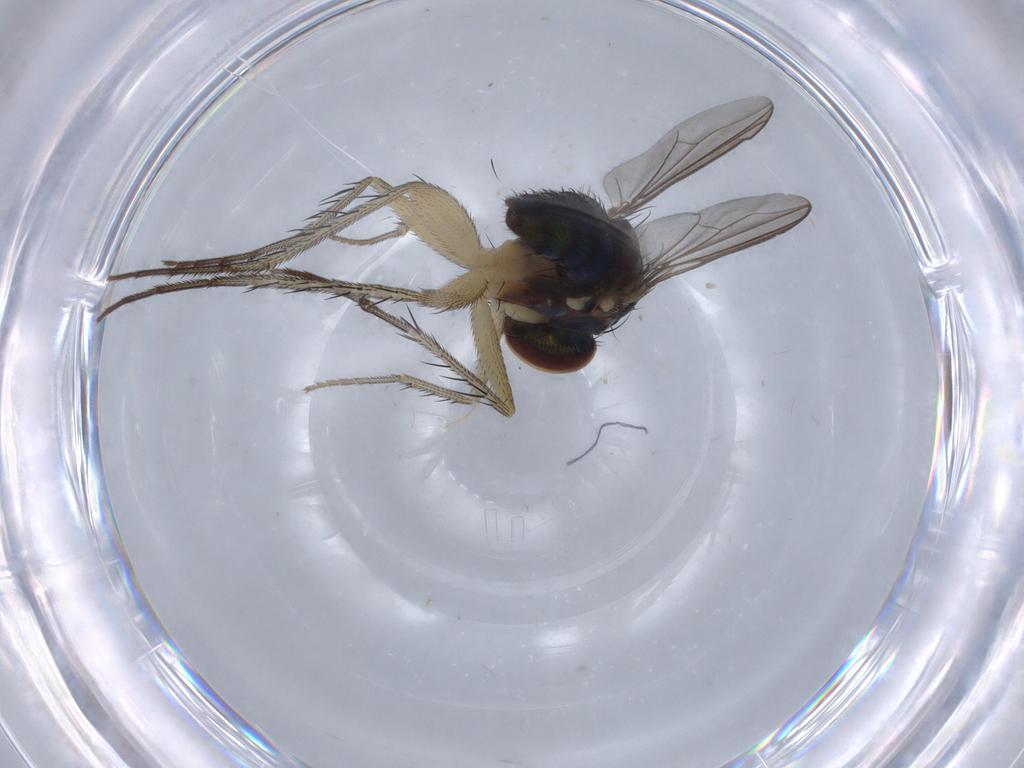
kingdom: Animalia
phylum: Arthropoda
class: Insecta
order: Diptera
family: Dolichopodidae
